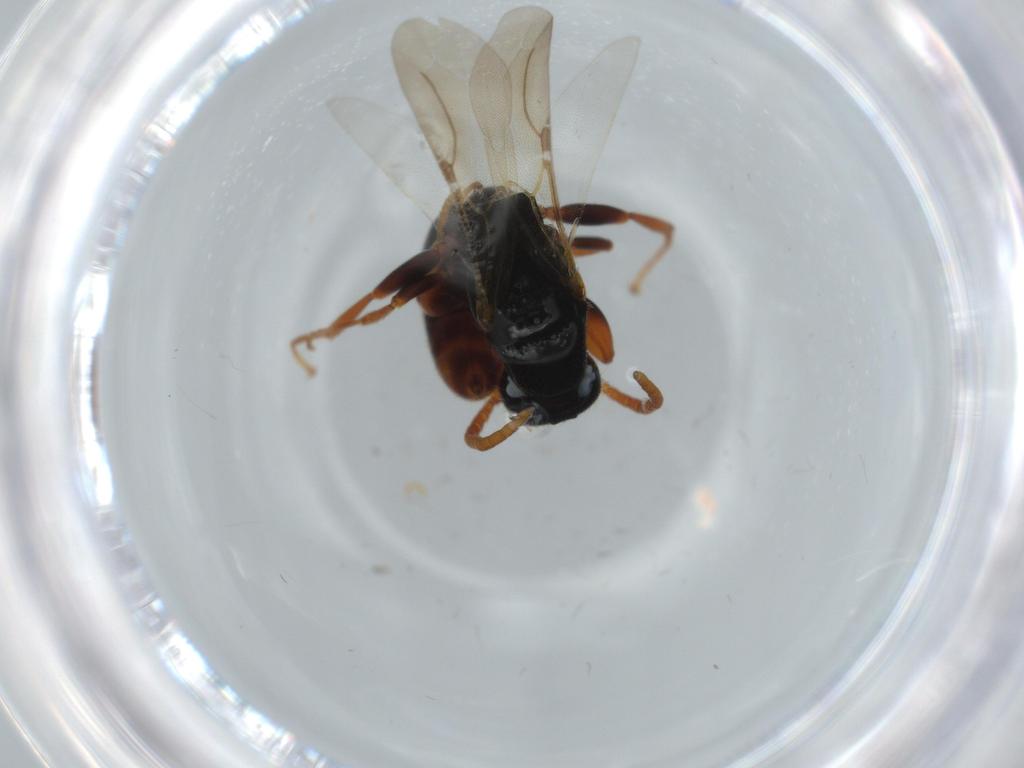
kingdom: Animalia
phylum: Arthropoda
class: Insecta
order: Hymenoptera
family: Bethylidae
